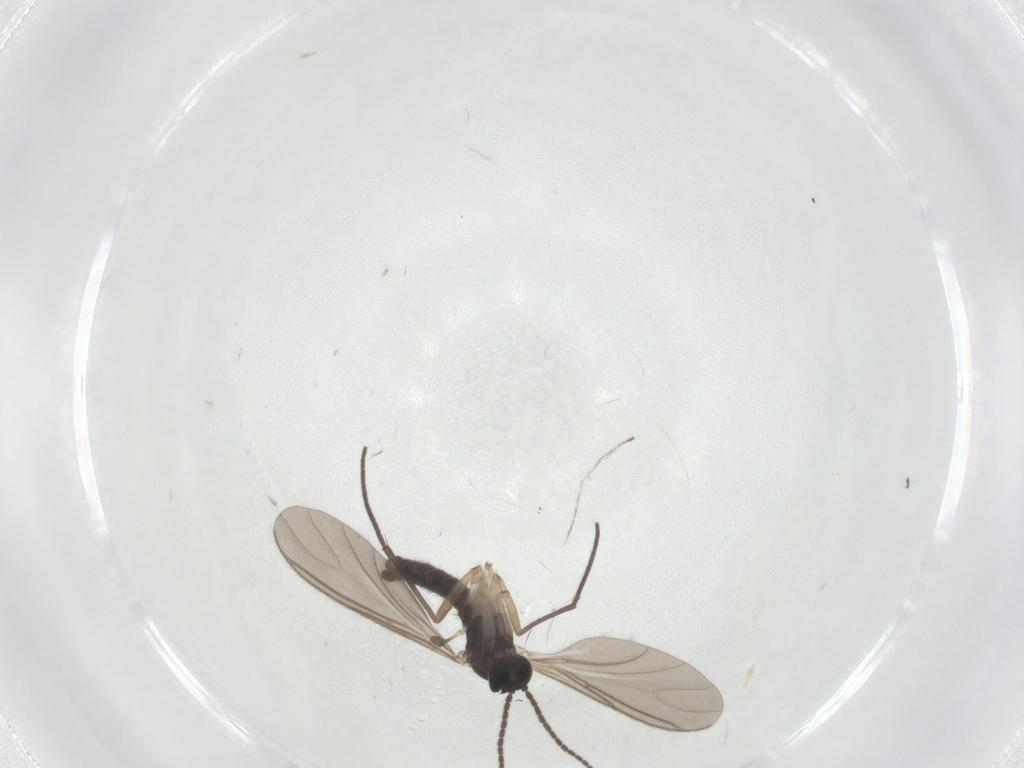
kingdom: Animalia
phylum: Arthropoda
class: Insecta
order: Diptera
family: Sciaridae
